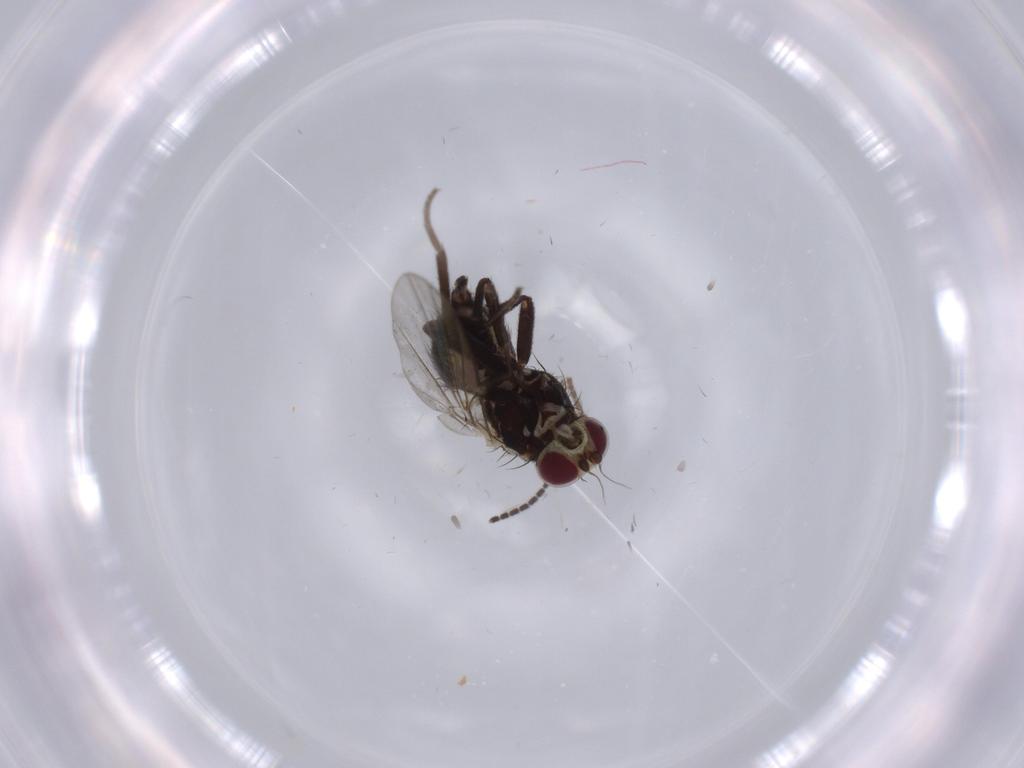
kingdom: Animalia
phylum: Arthropoda
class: Insecta
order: Diptera
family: Agromyzidae
